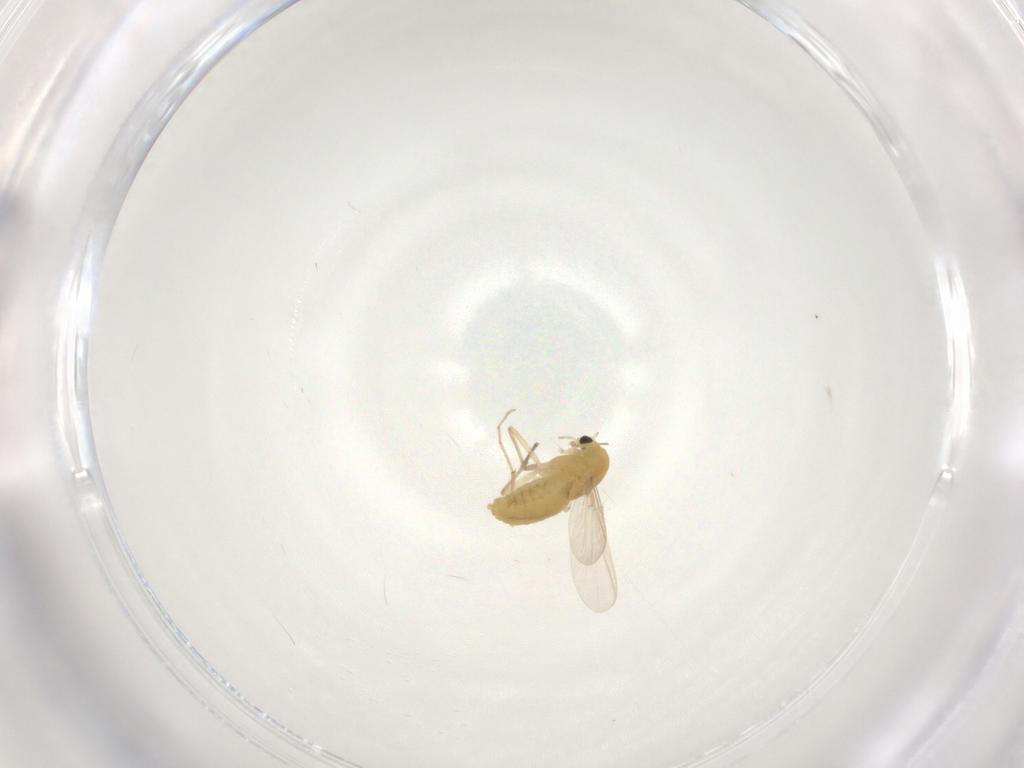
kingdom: Animalia
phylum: Arthropoda
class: Insecta
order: Diptera
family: Chironomidae
